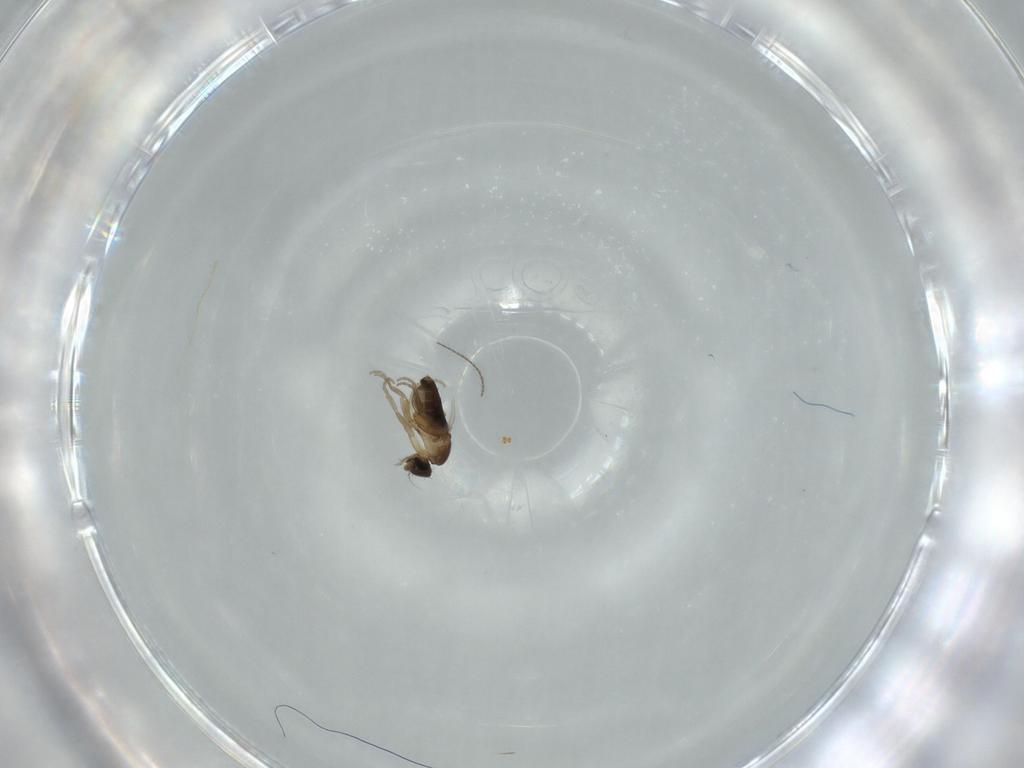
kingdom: Animalia
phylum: Arthropoda
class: Insecta
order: Diptera
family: Phoridae
